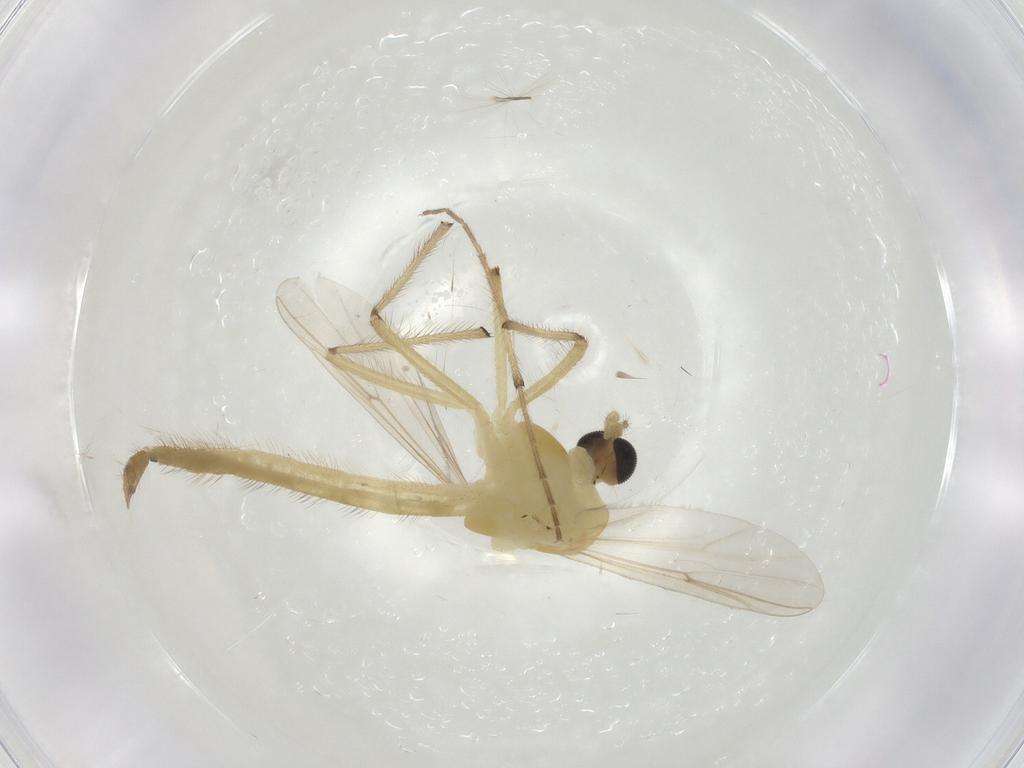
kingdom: Animalia
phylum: Arthropoda
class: Insecta
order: Diptera
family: Chironomidae
